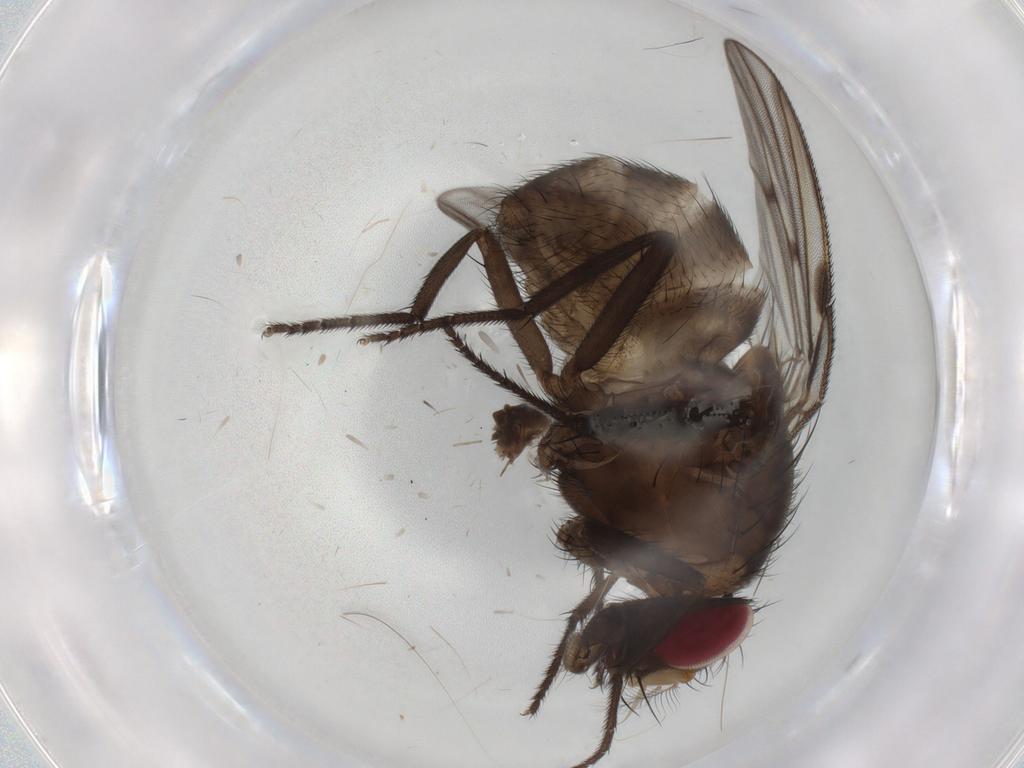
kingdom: Animalia
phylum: Arthropoda
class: Insecta
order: Diptera
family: Muscidae
